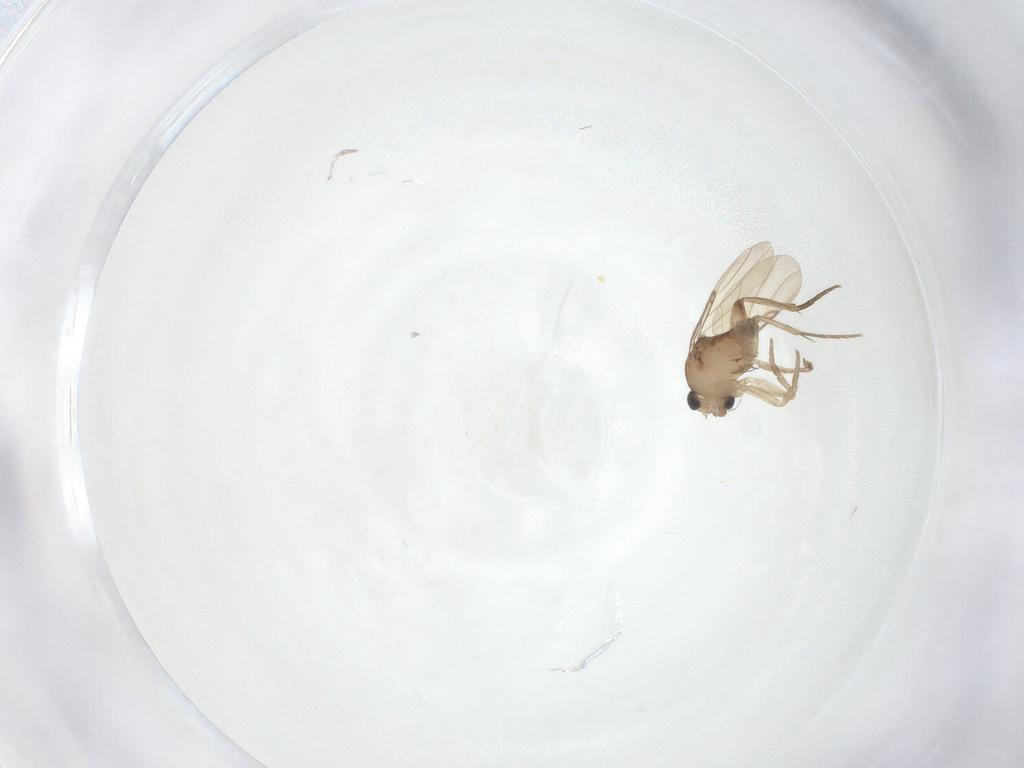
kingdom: Animalia
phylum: Arthropoda
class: Insecta
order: Diptera
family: Phoridae
